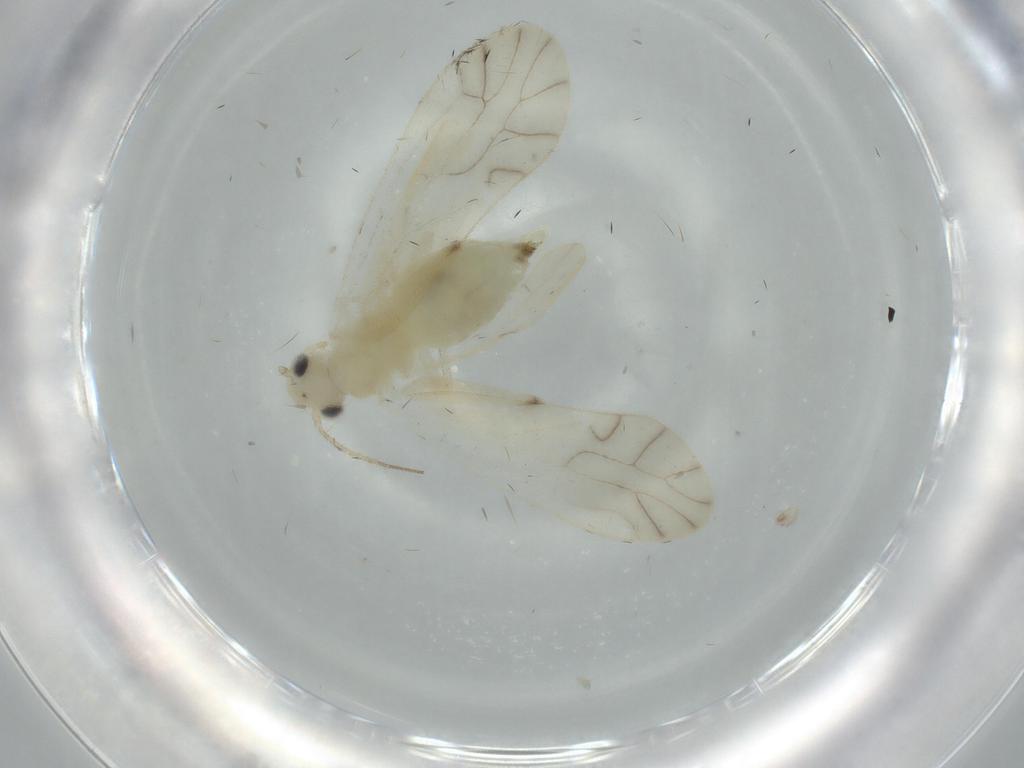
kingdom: Animalia
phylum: Arthropoda
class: Insecta
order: Psocodea
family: Caeciliusidae
